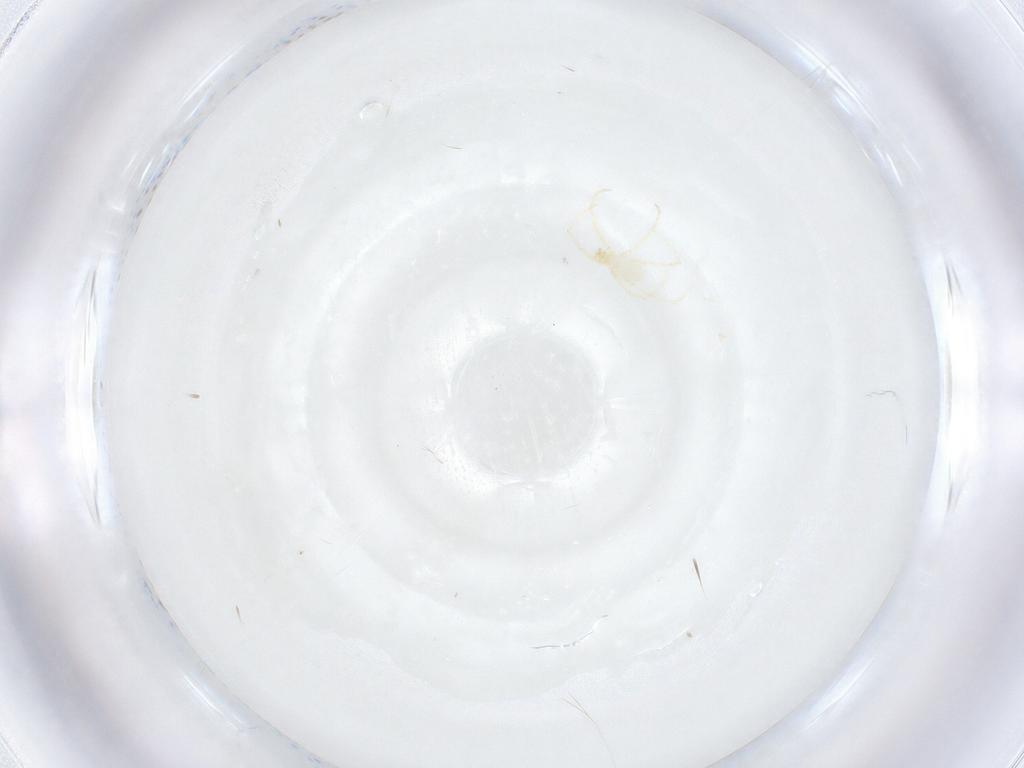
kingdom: Animalia
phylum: Arthropoda
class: Arachnida
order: Trombidiformes
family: Erythraeidae
